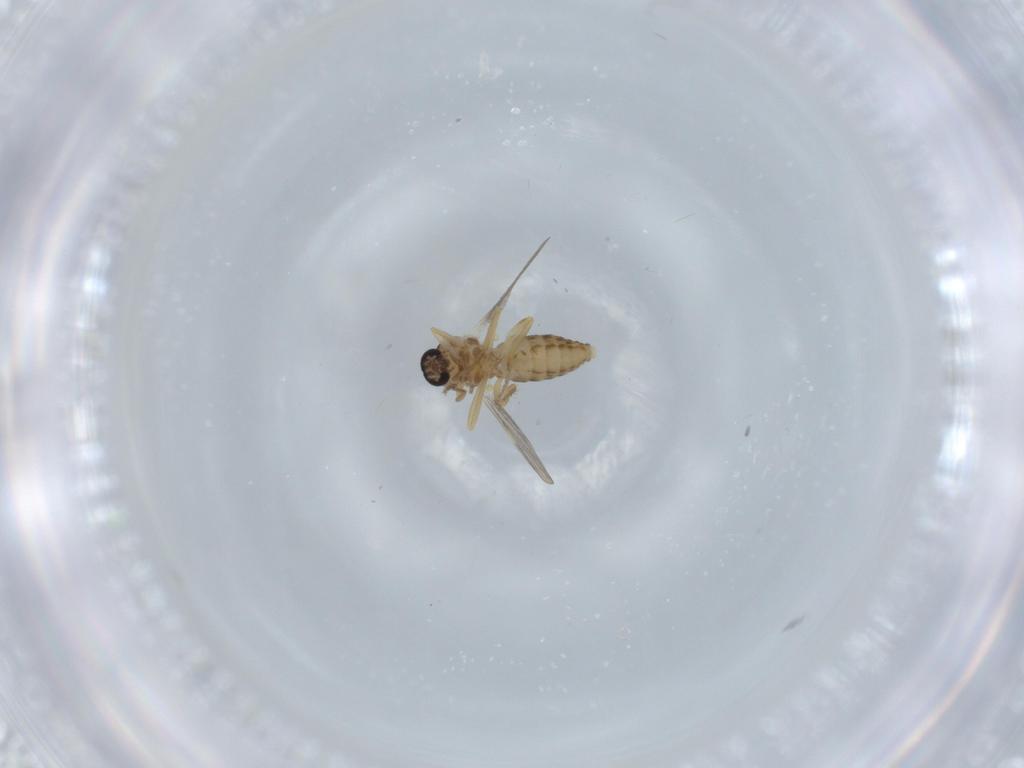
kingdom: Animalia
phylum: Arthropoda
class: Insecta
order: Diptera
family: Ceratopogonidae
